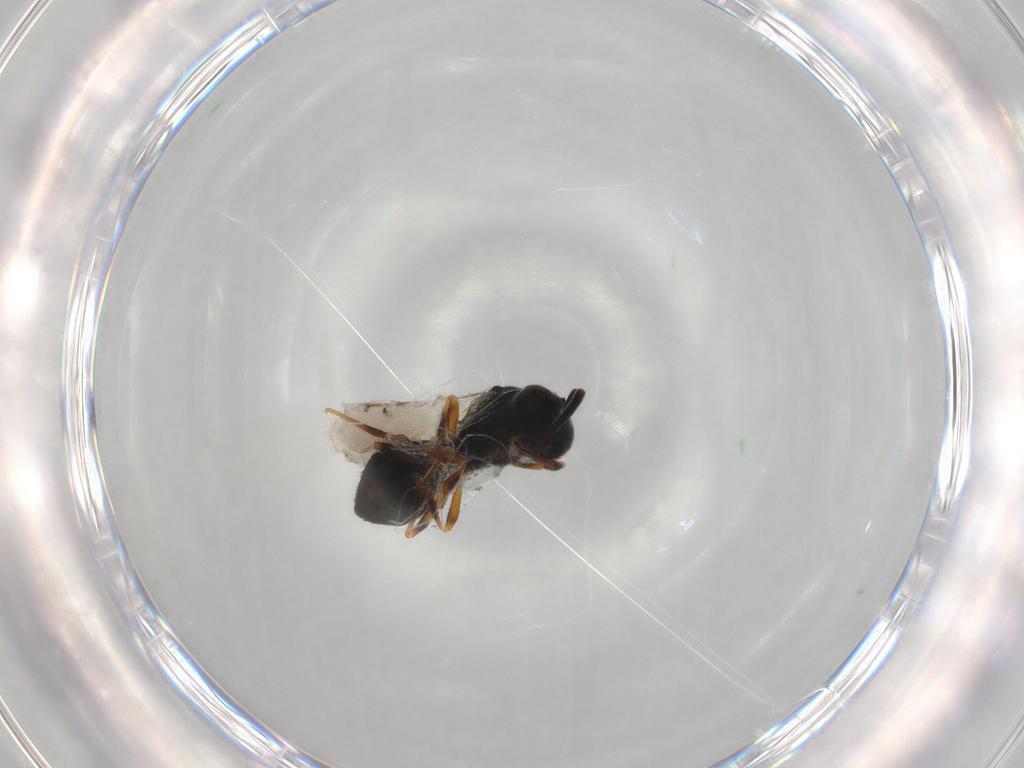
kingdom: Animalia
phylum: Arthropoda
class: Insecta
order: Hymenoptera
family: Scelionidae
